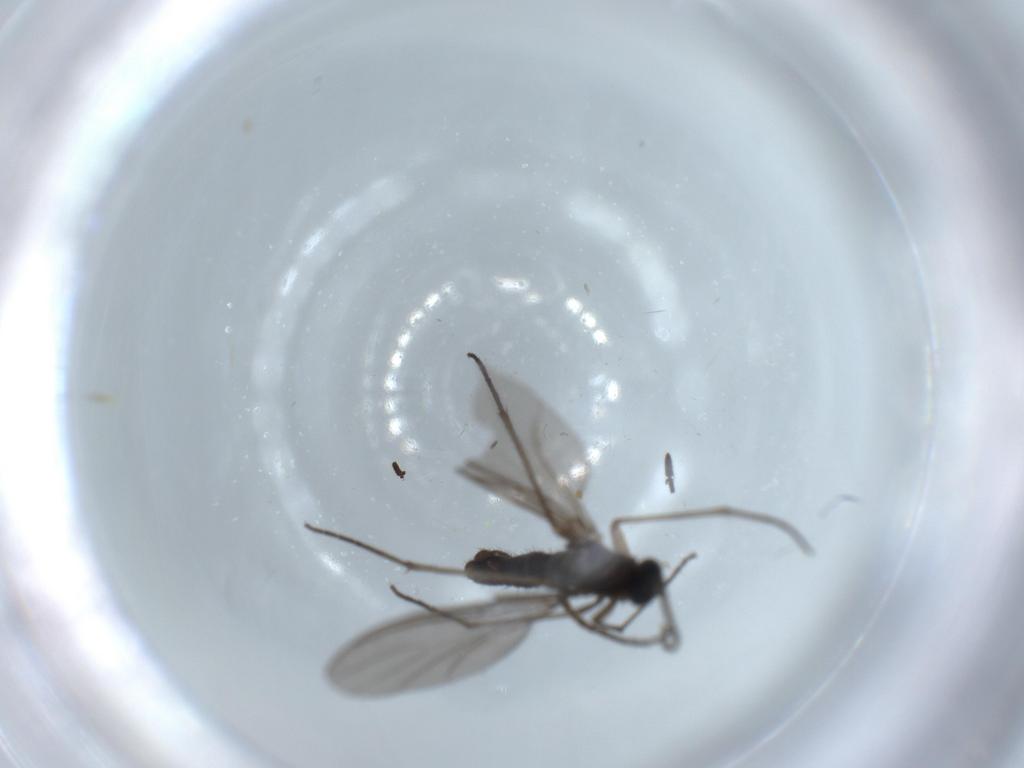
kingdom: Animalia
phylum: Arthropoda
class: Insecta
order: Diptera
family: Sciaridae
